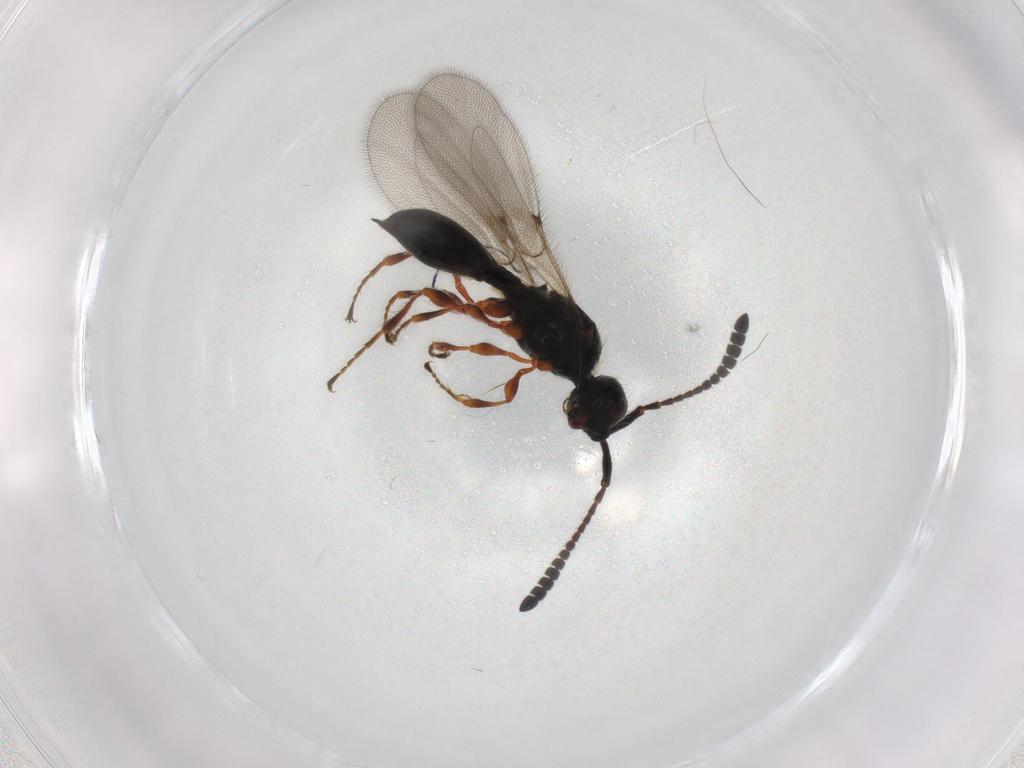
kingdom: Animalia
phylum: Arthropoda
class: Insecta
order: Hymenoptera
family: Diapriidae
